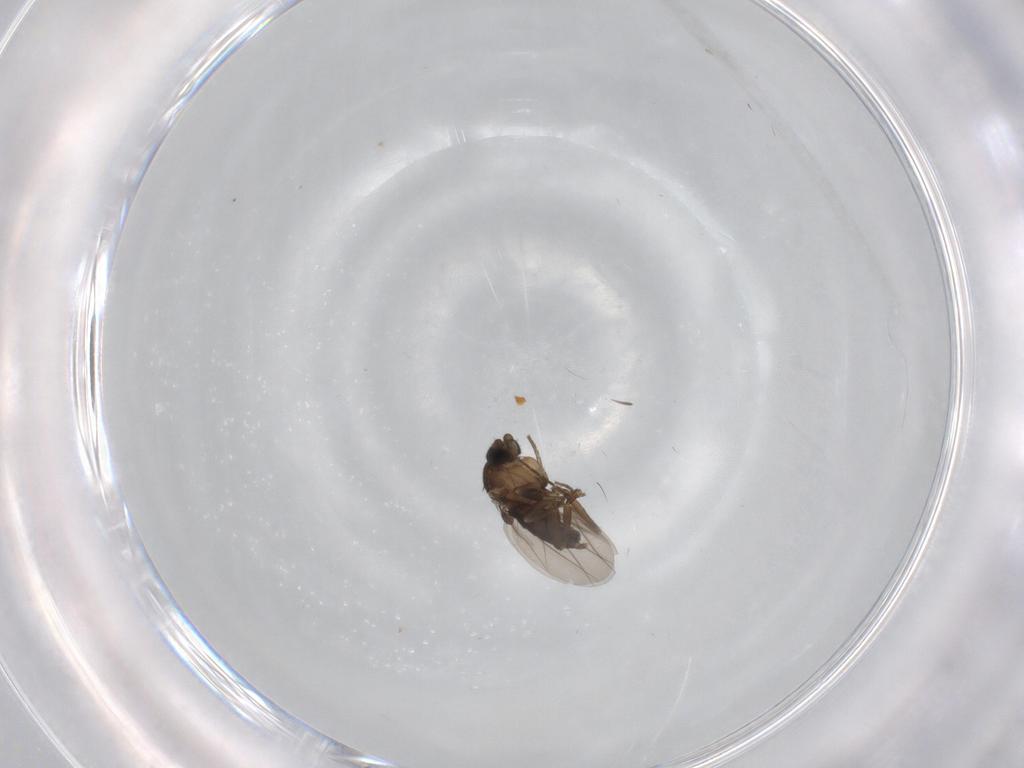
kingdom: Animalia
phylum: Arthropoda
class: Insecta
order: Diptera
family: Phoridae
